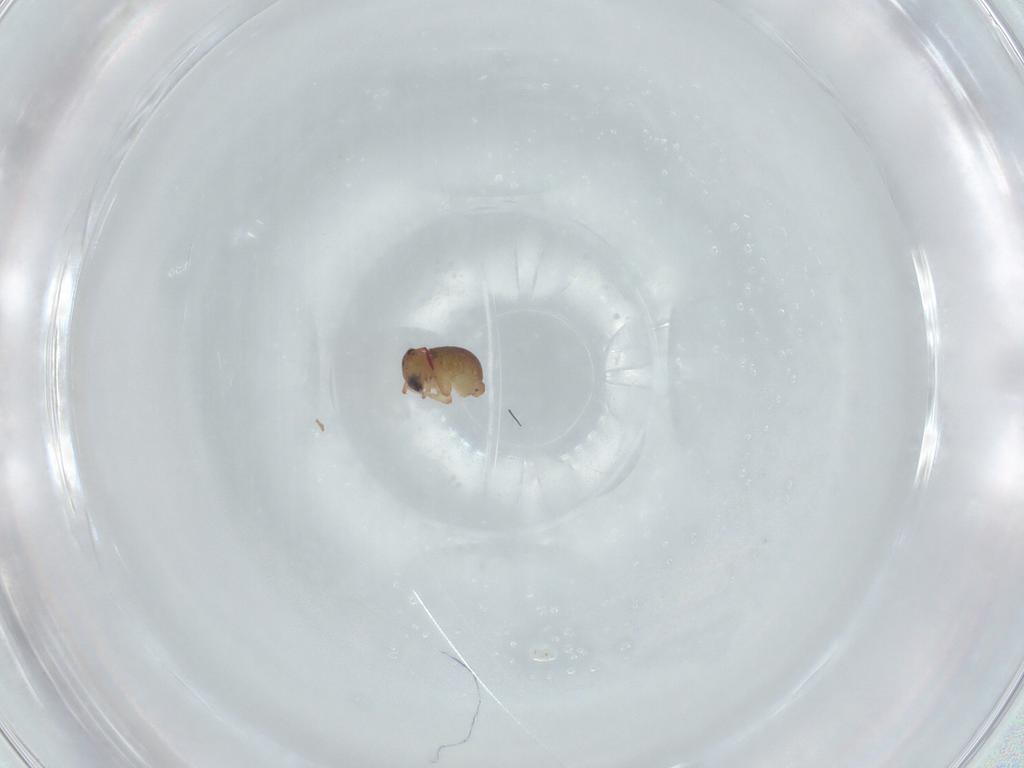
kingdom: Animalia
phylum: Arthropoda
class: Collembola
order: Symphypleona
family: Sminthurididae
